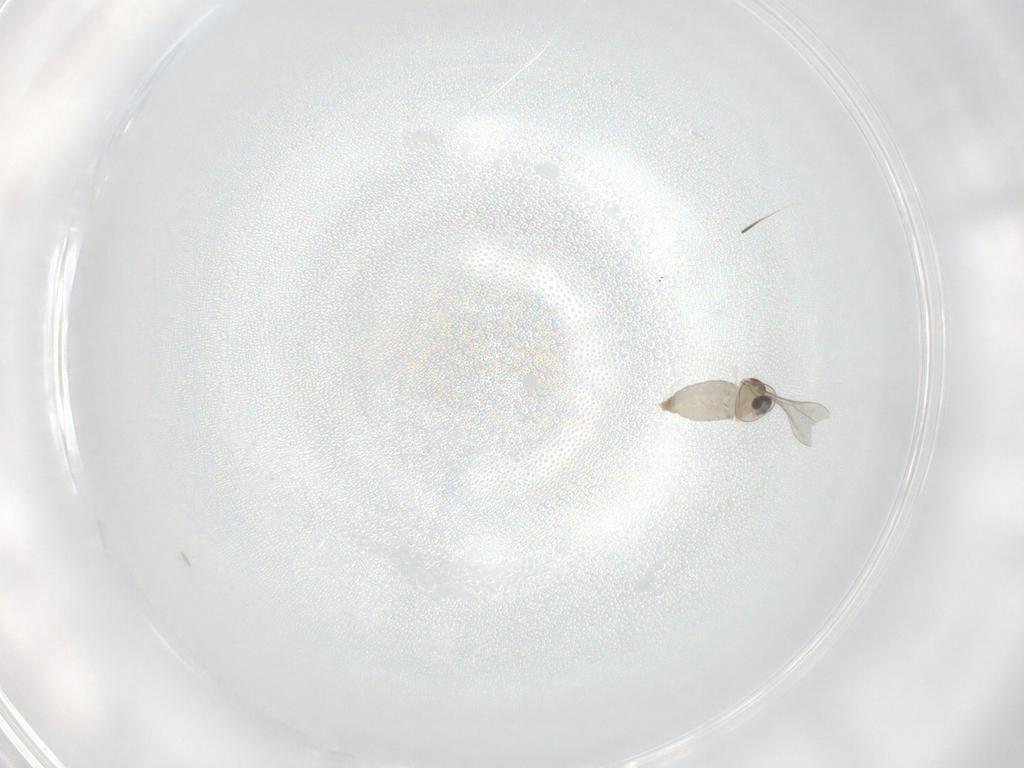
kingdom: Animalia
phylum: Arthropoda
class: Insecta
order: Diptera
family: Cecidomyiidae
